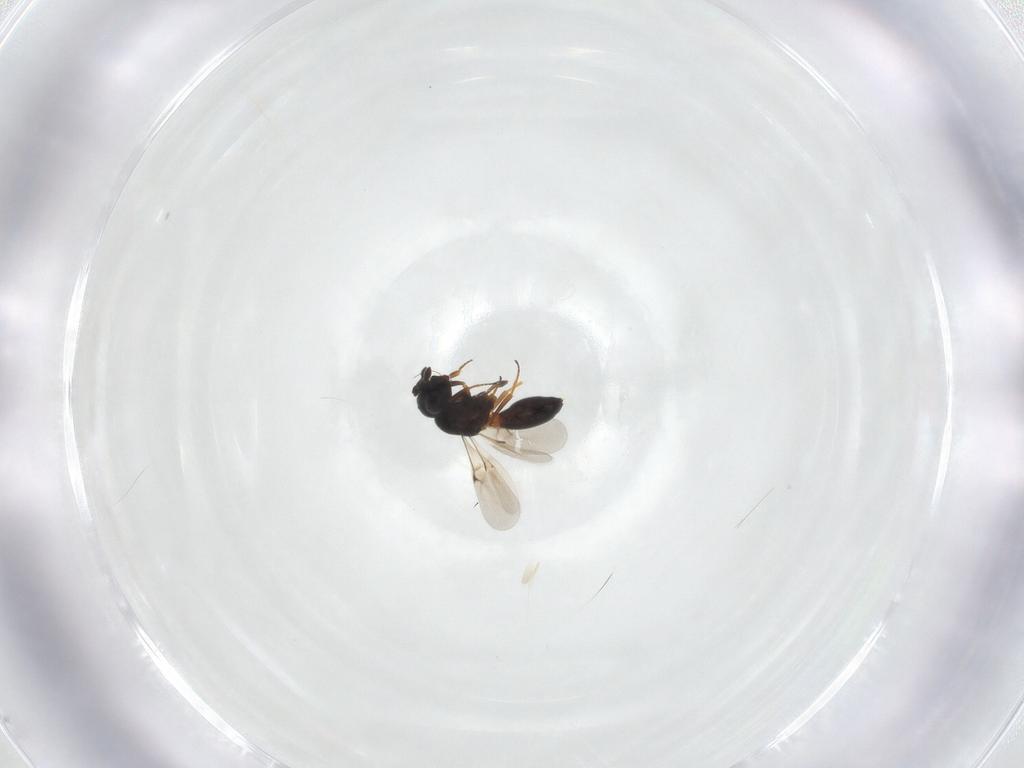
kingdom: Animalia
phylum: Arthropoda
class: Insecta
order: Hymenoptera
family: Scelionidae
